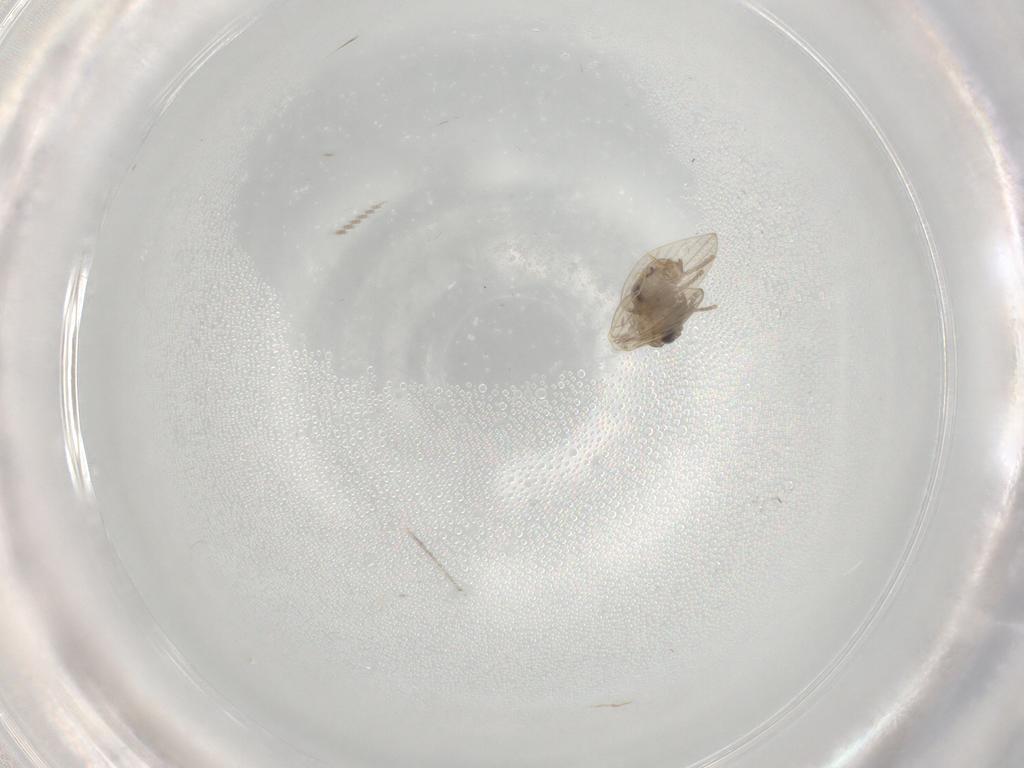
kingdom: Animalia
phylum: Arthropoda
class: Insecta
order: Diptera
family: Psychodidae
